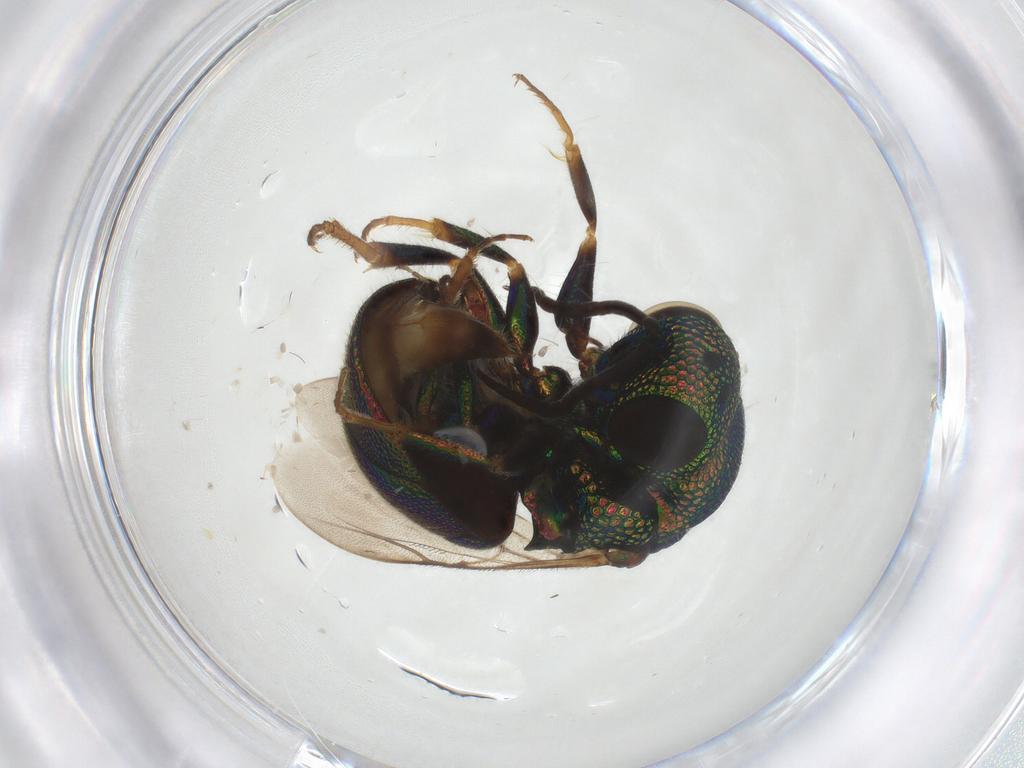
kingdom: Animalia
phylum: Arthropoda
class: Insecta
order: Hymenoptera
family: Chrysididae
